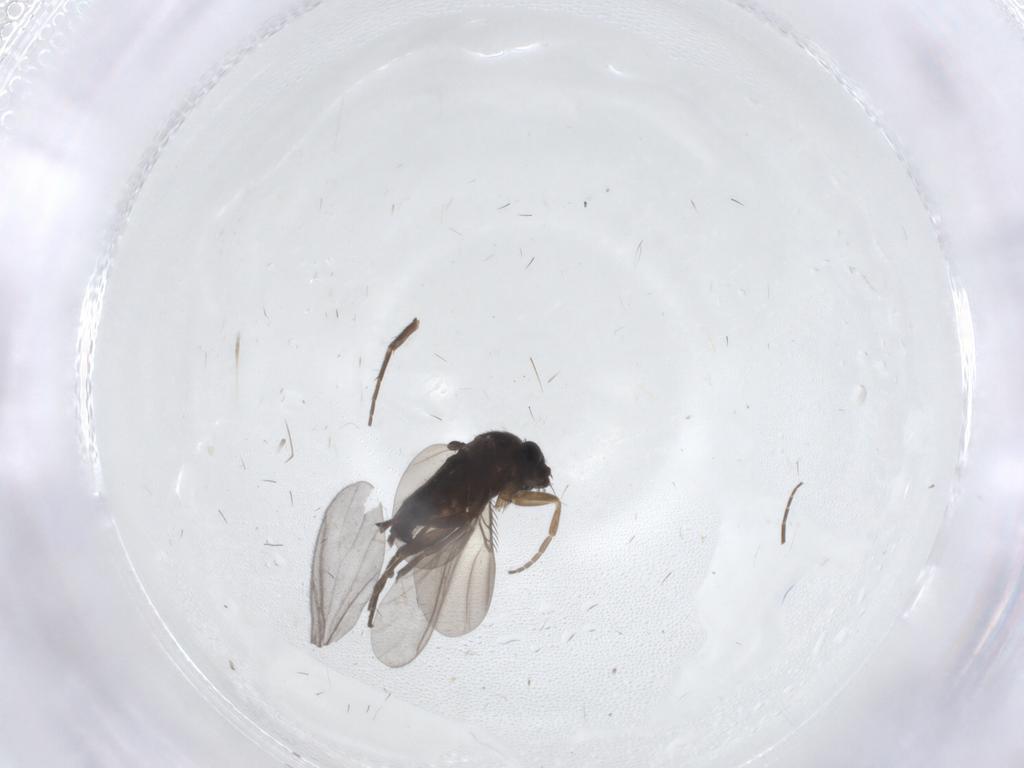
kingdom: Animalia
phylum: Arthropoda
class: Insecta
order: Diptera
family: Phoridae
